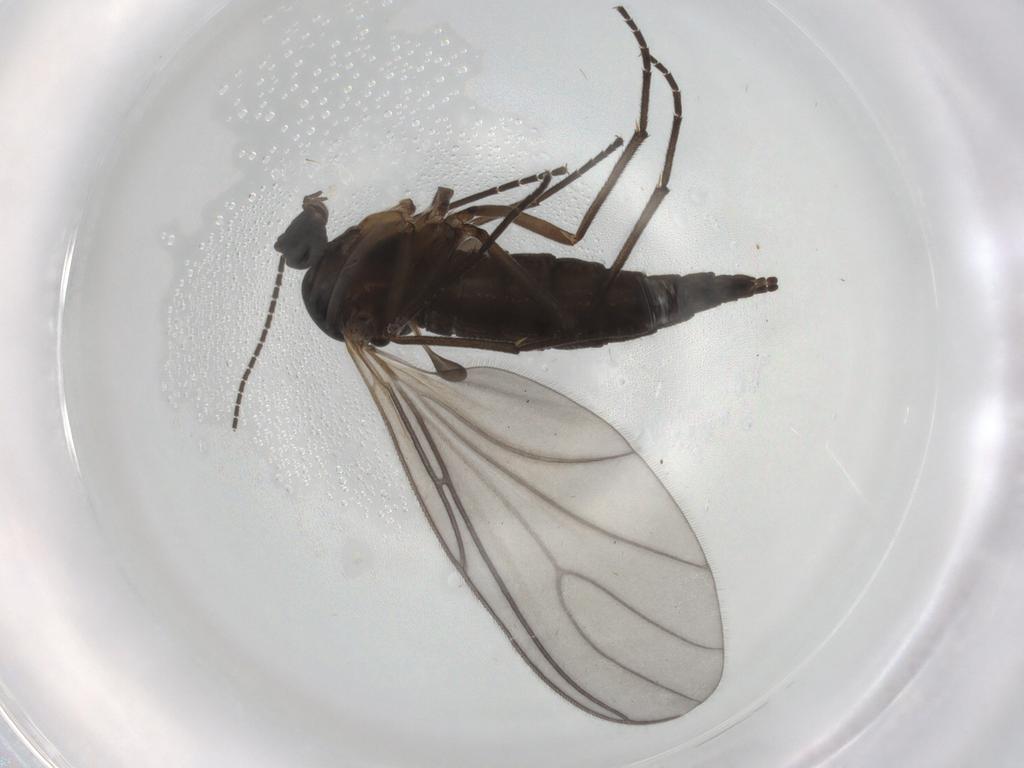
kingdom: Animalia
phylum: Arthropoda
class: Insecta
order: Diptera
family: Sciaridae
